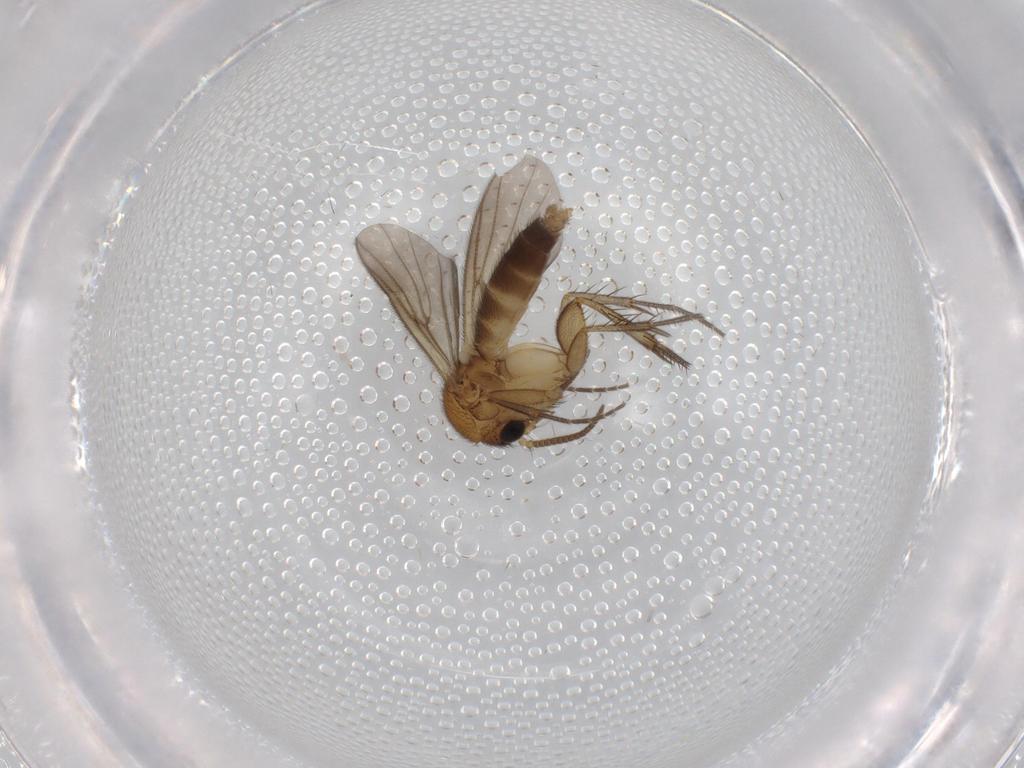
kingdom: Animalia
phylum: Arthropoda
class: Insecta
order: Diptera
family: Sciaridae
